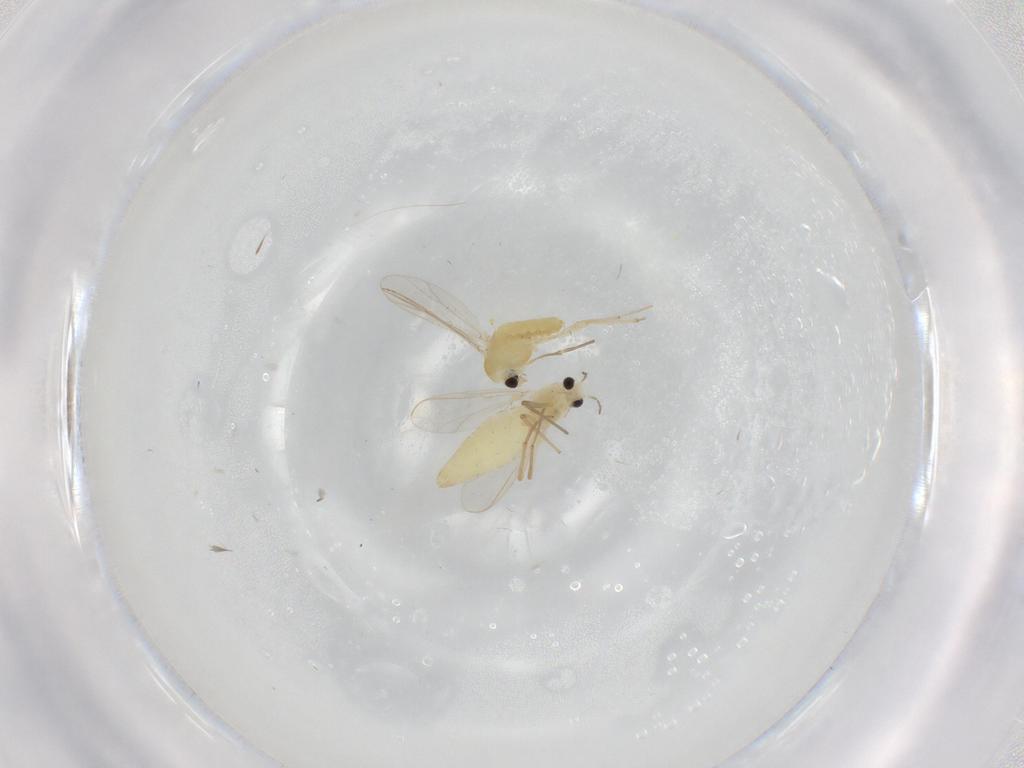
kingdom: Animalia
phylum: Arthropoda
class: Insecta
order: Diptera
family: Chironomidae
